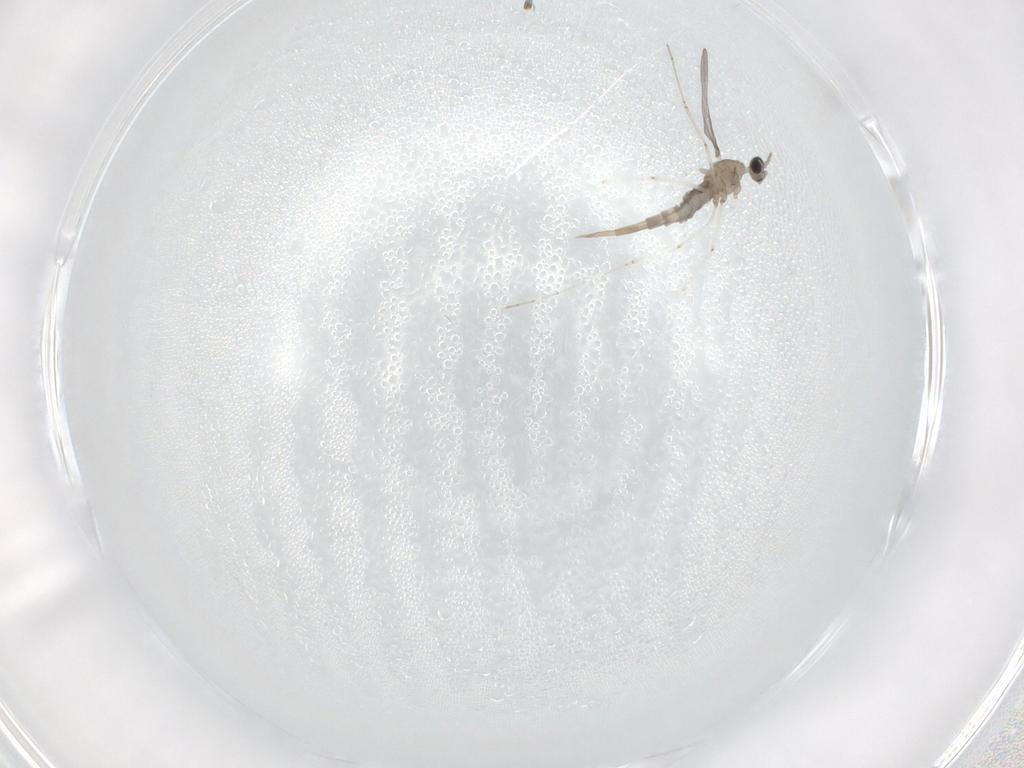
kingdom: Animalia
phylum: Arthropoda
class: Insecta
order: Diptera
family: Cecidomyiidae
